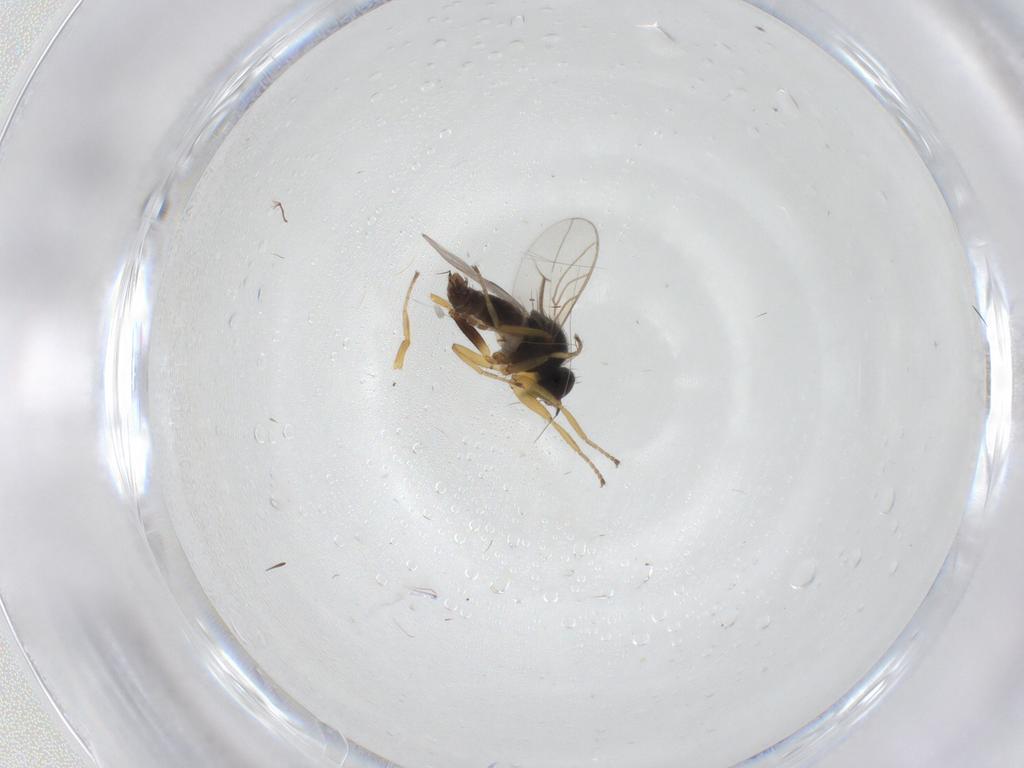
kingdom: Animalia
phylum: Arthropoda
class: Insecta
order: Diptera
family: Hybotidae
